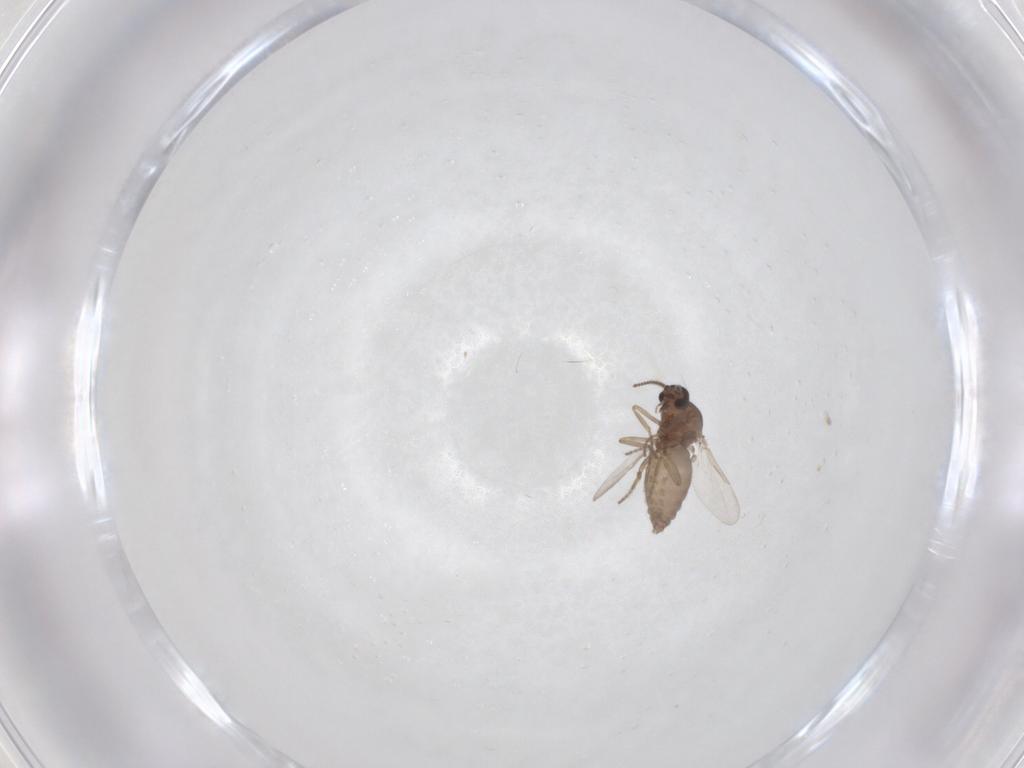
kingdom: Animalia
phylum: Arthropoda
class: Insecta
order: Diptera
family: Ceratopogonidae
